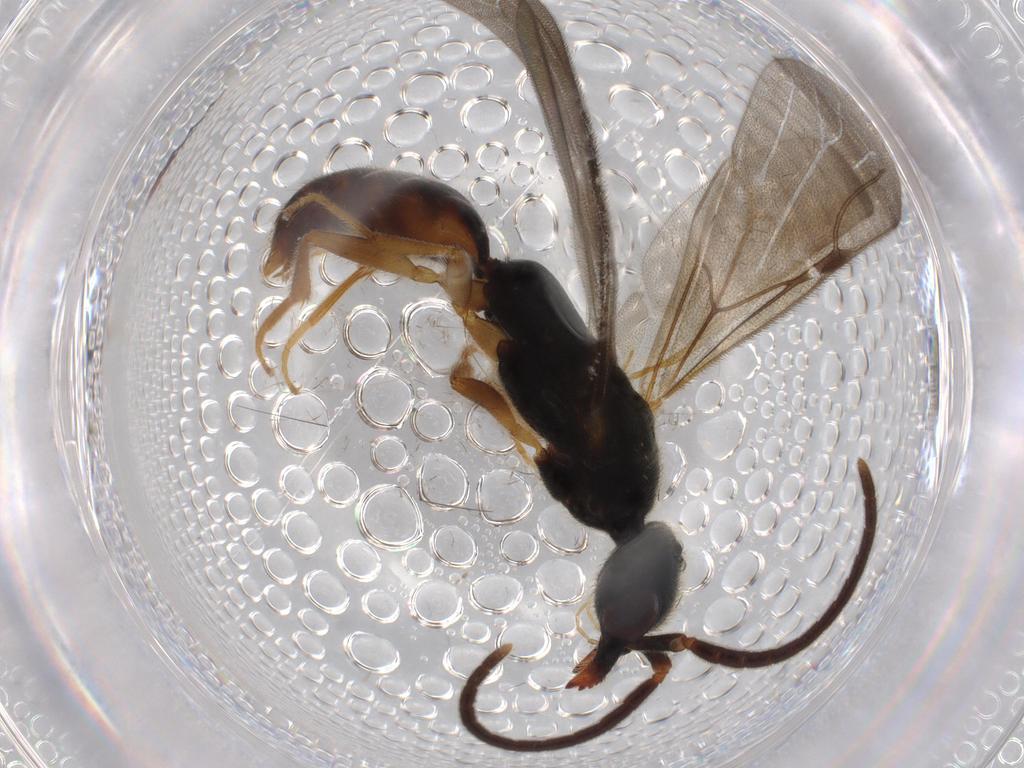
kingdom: Animalia
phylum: Arthropoda
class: Insecta
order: Hymenoptera
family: Bethylidae
